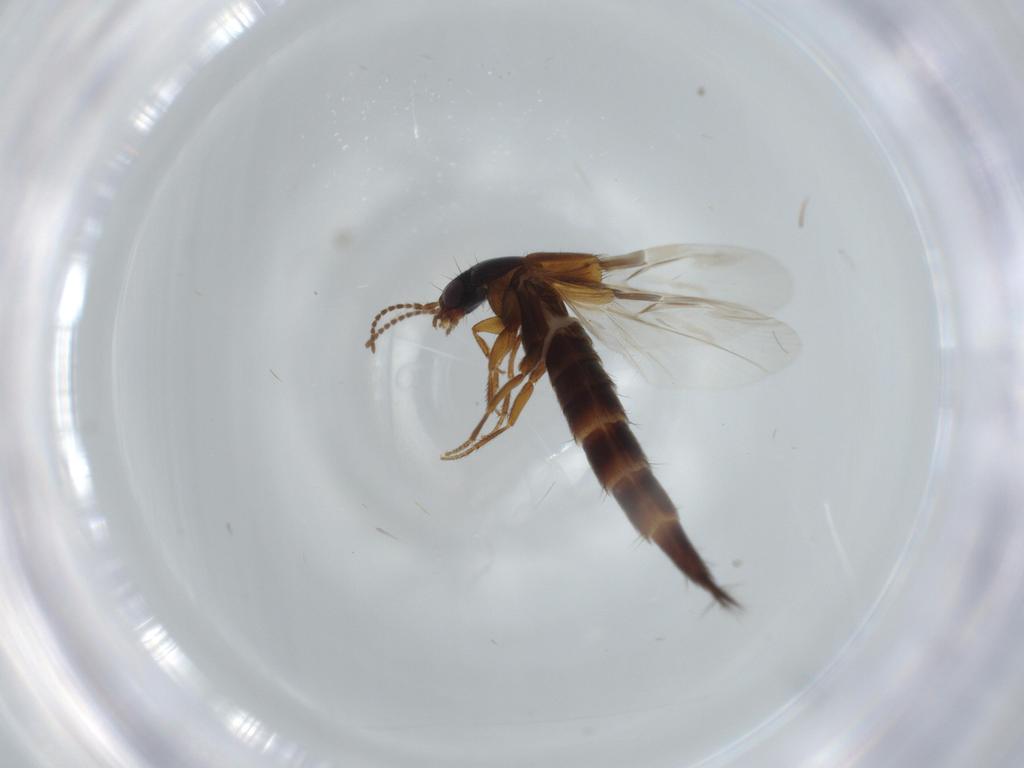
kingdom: Animalia
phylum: Arthropoda
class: Insecta
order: Coleoptera
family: Staphylinidae
